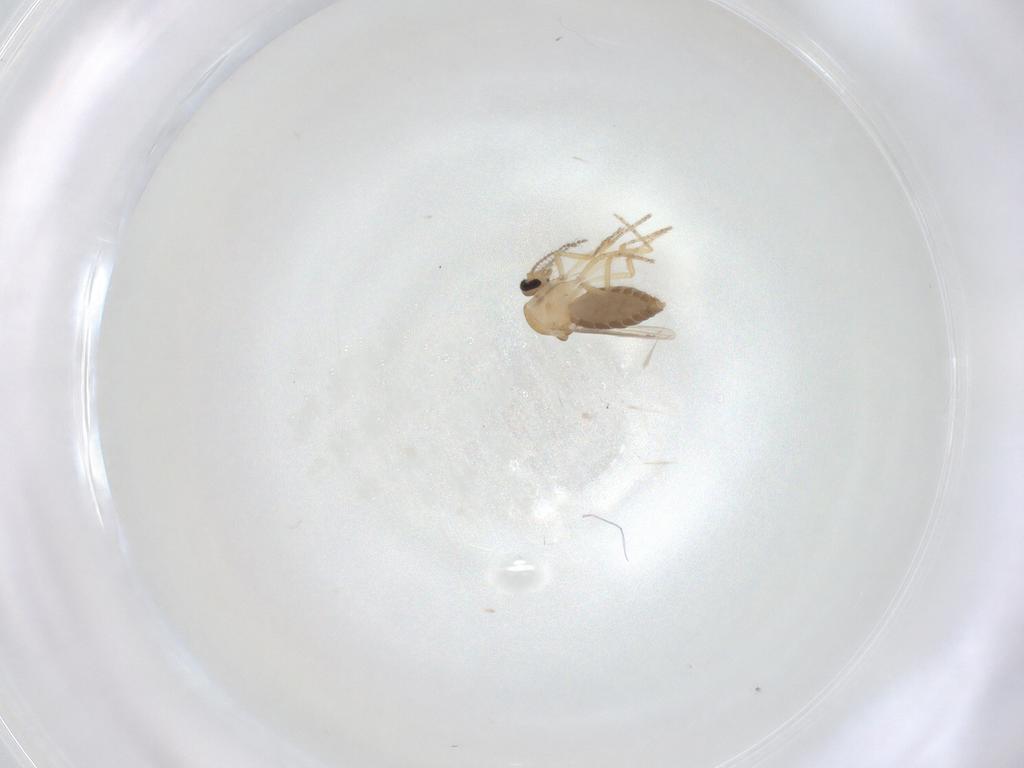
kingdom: Animalia
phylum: Arthropoda
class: Insecta
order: Diptera
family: Ceratopogonidae
